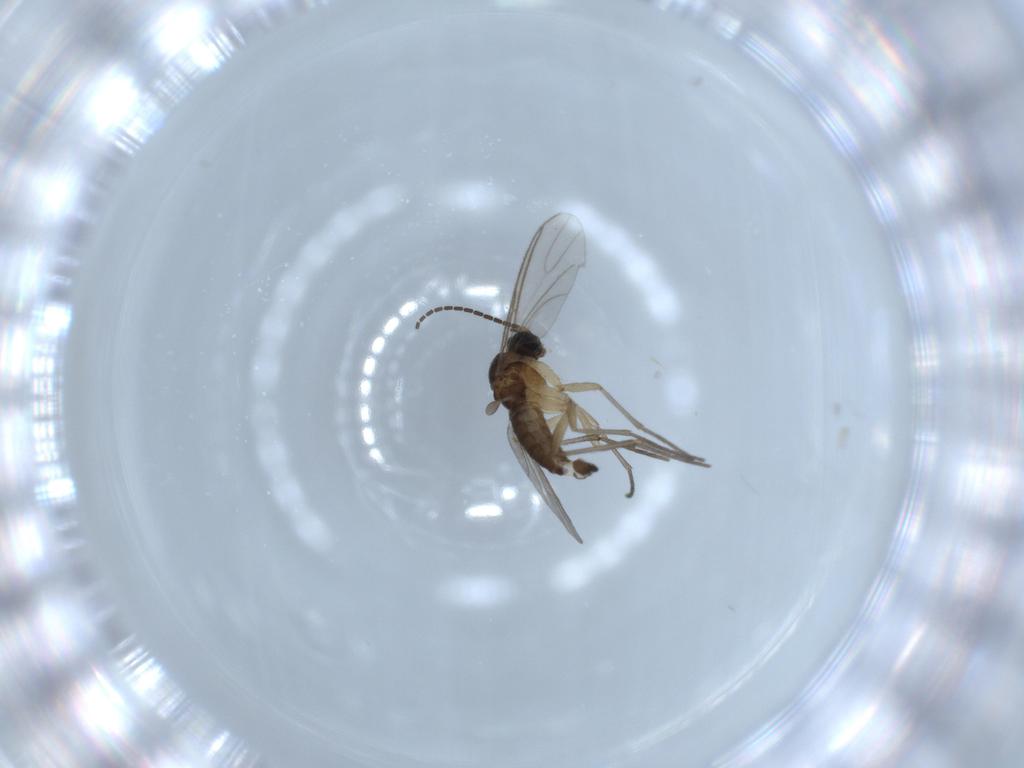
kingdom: Animalia
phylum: Arthropoda
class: Insecta
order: Diptera
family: Sciaridae
